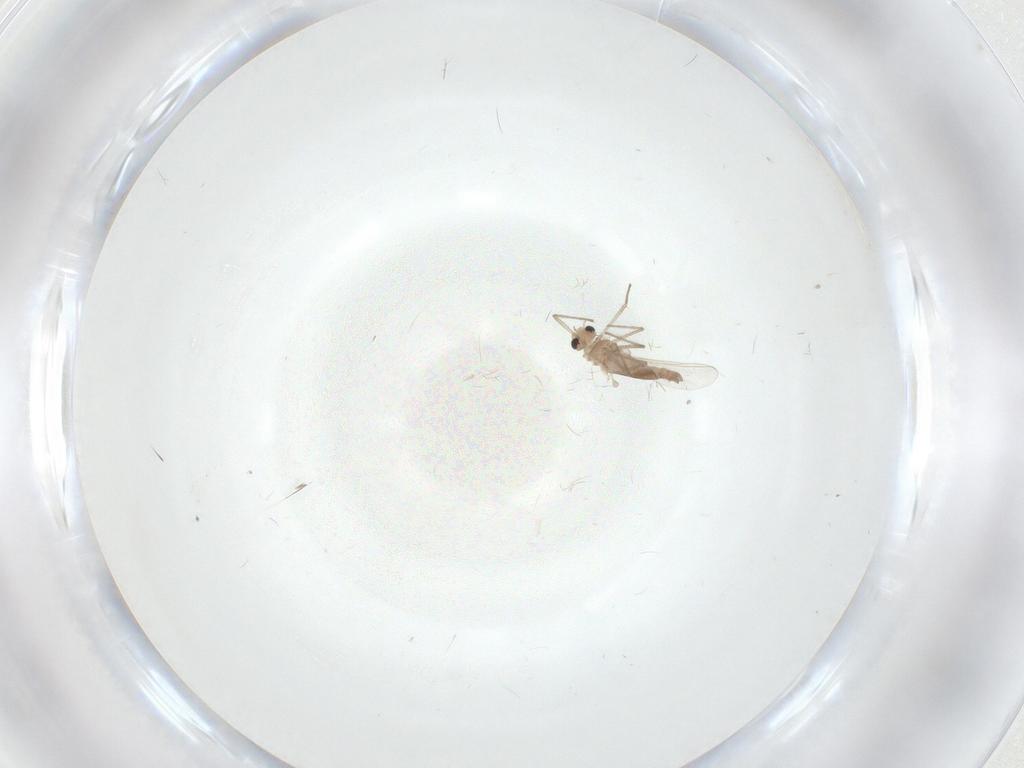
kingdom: Animalia
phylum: Arthropoda
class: Insecta
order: Diptera
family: Chironomidae
